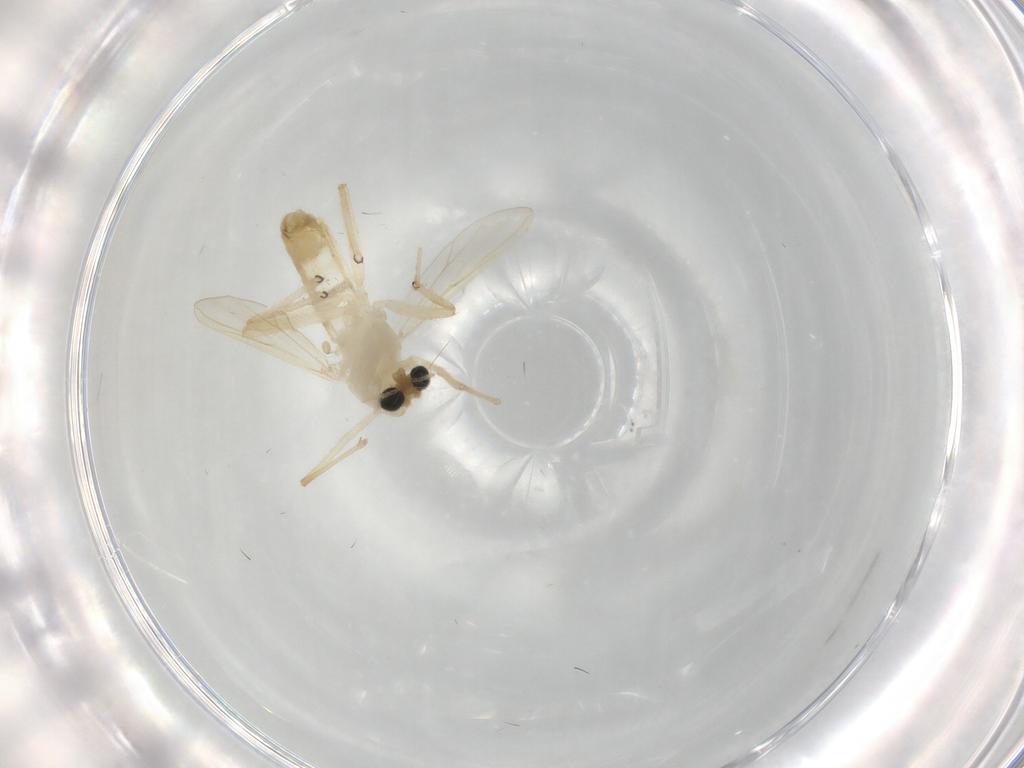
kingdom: Animalia
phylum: Arthropoda
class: Insecta
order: Diptera
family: Chironomidae
